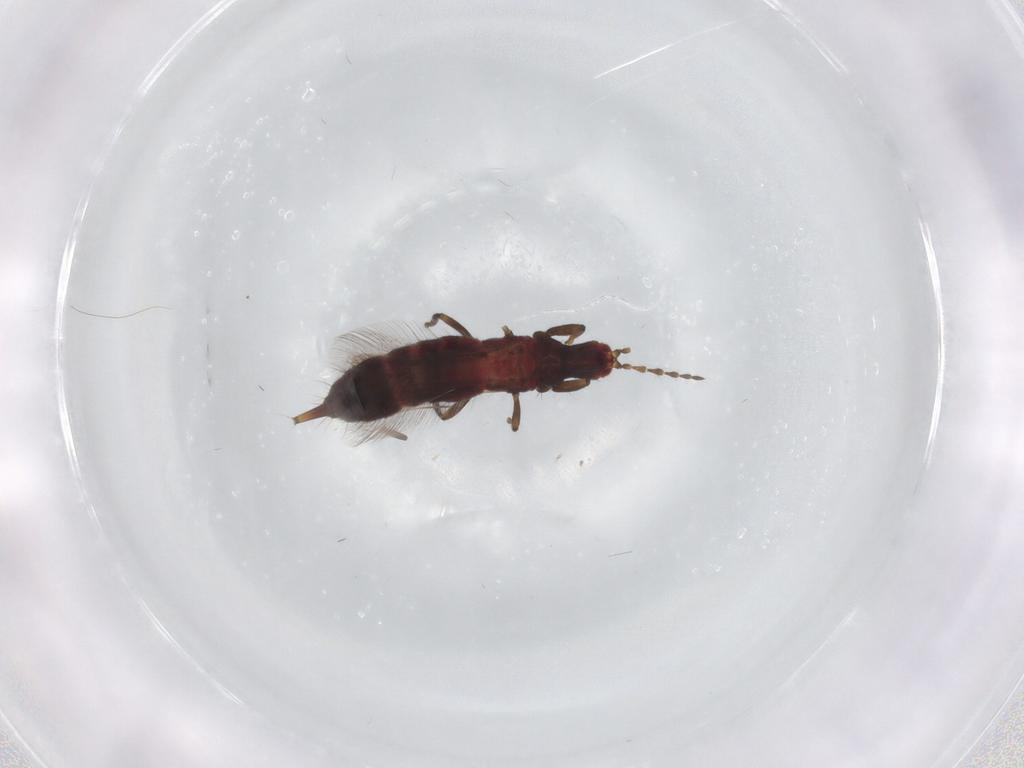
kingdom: Animalia
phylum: Arthropoda
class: Insecta
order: Thysanoptera
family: Phlaeothripidae
